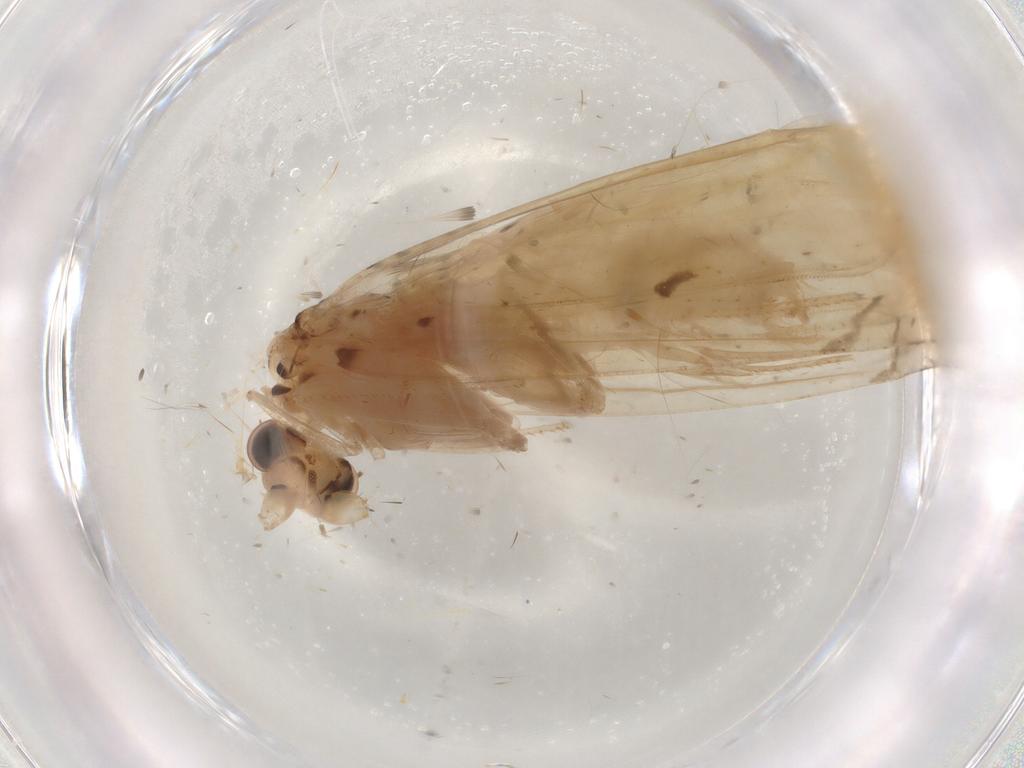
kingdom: Animalia
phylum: Arthropoda
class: Insecta
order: Lepidoptera
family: Lecithoceridae
